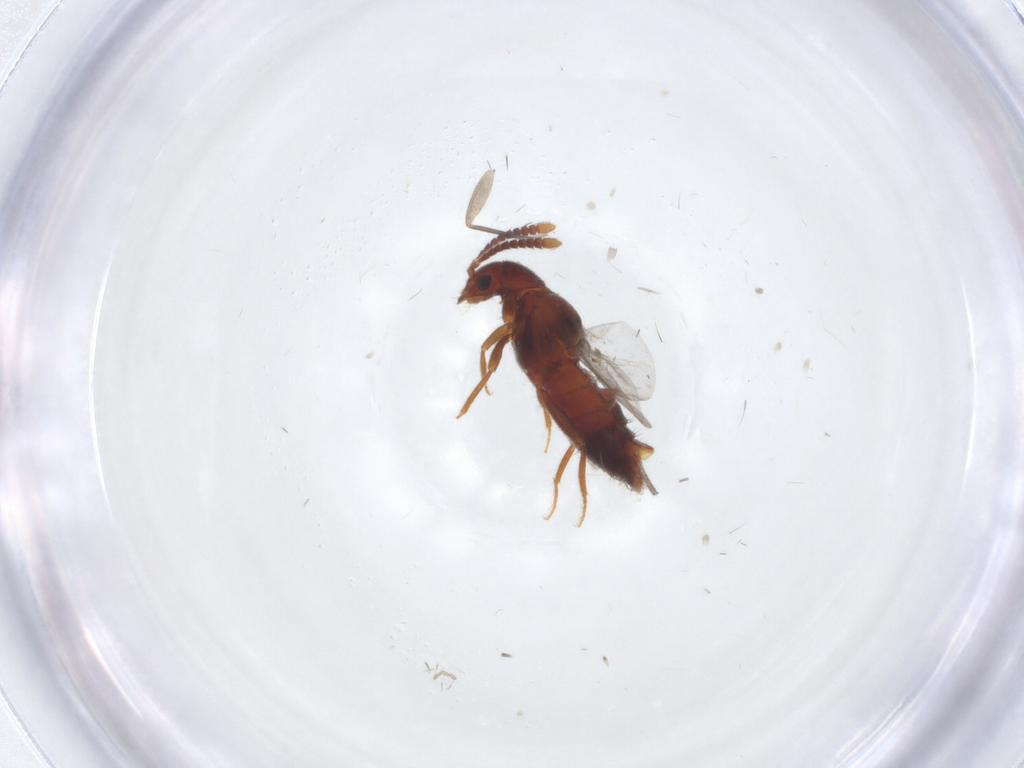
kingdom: Animalia
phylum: Arthropoda
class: Insecta
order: Coleoptera
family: Staphylinidae
